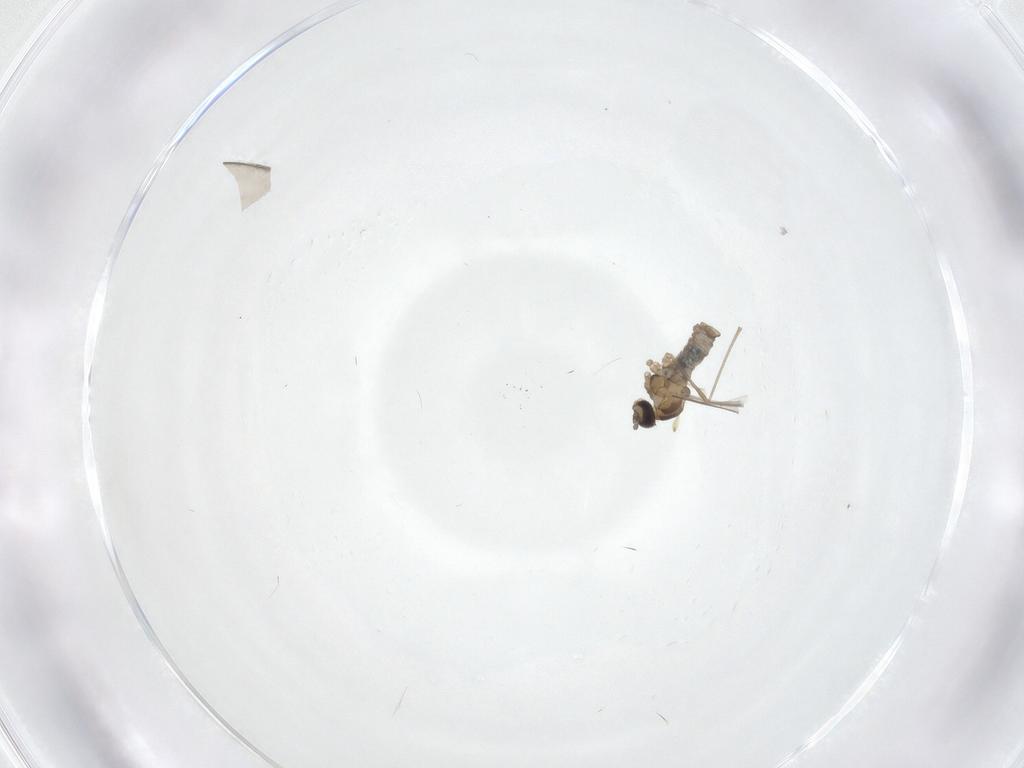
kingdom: Animalia
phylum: Arthropoda
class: Insecta
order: Diptera
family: Cecidomyiidae
